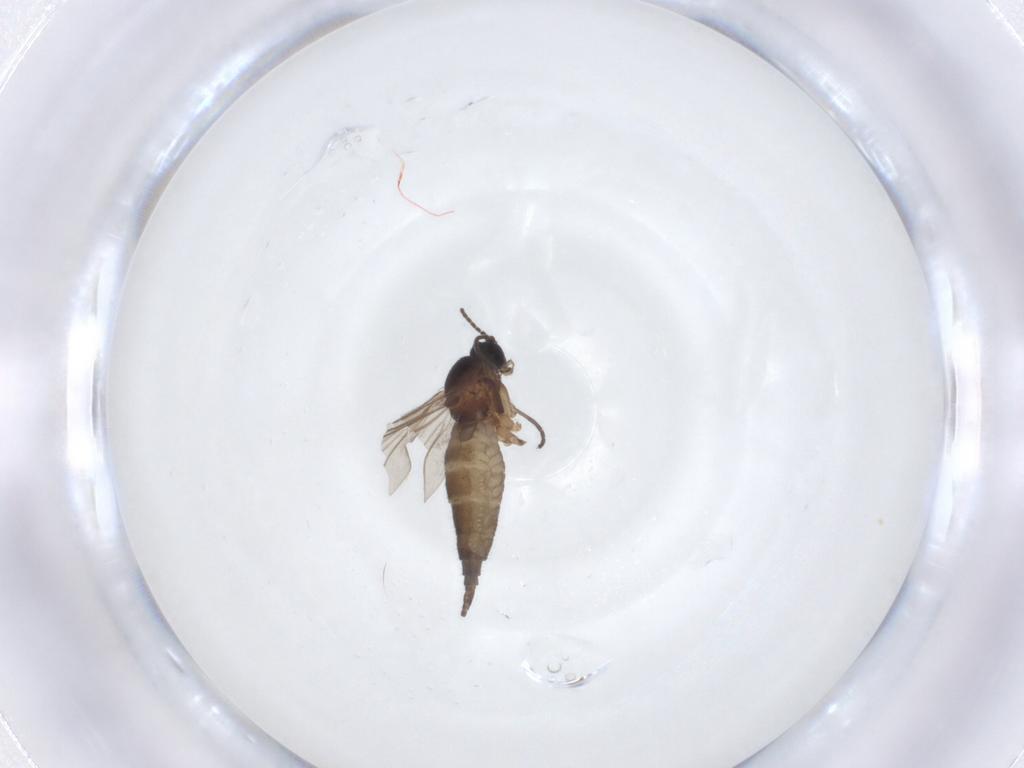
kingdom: Animalia
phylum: Arthropoda
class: Insecta
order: Diptera
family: Sciaridae
